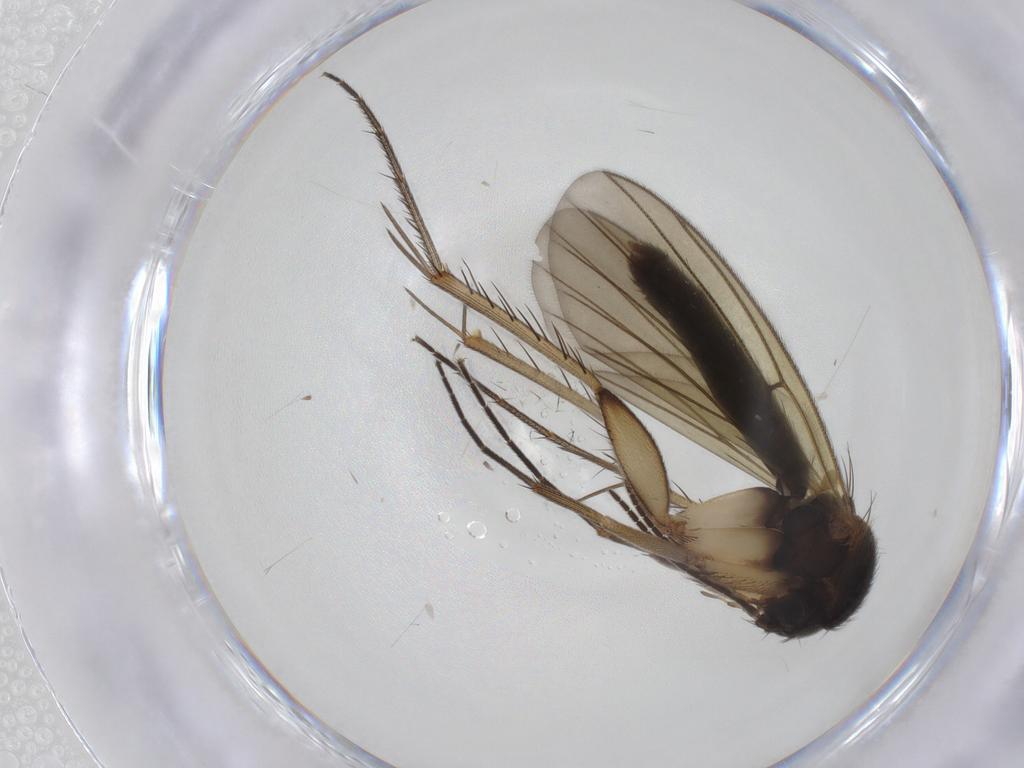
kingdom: Animalia
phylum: Arthropoda
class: Insecta
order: Diptera
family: Mycetophilidae
